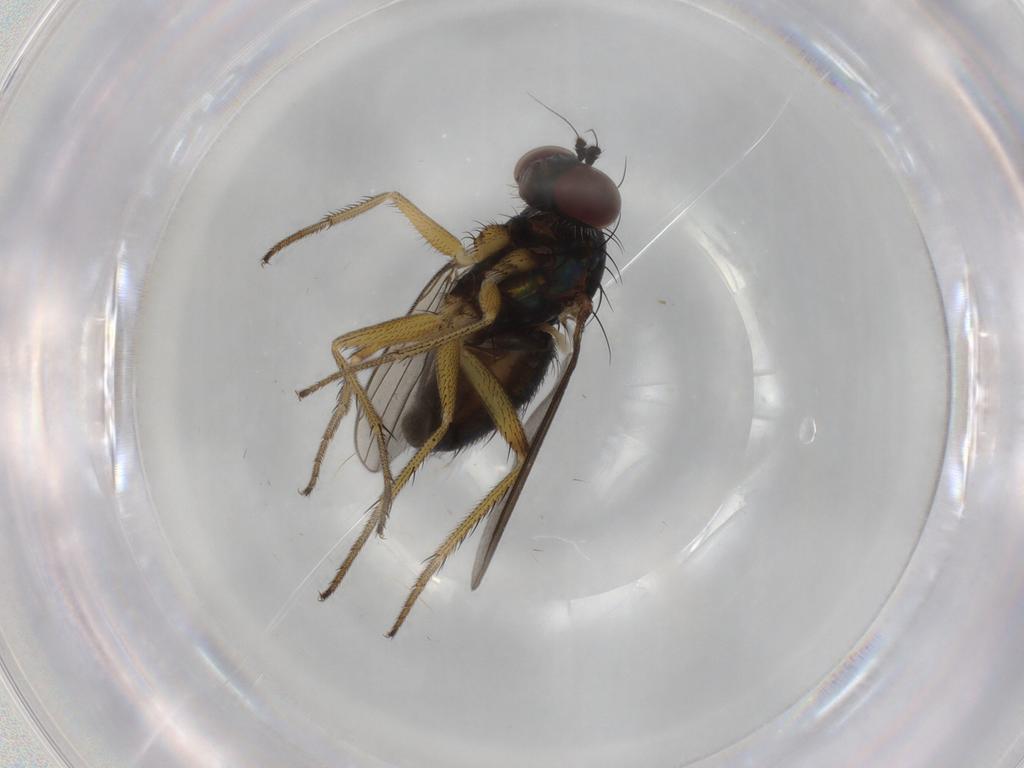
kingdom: Animalia
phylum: Arthropoda
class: Insecta
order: Diptera
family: Dolichopodidae
